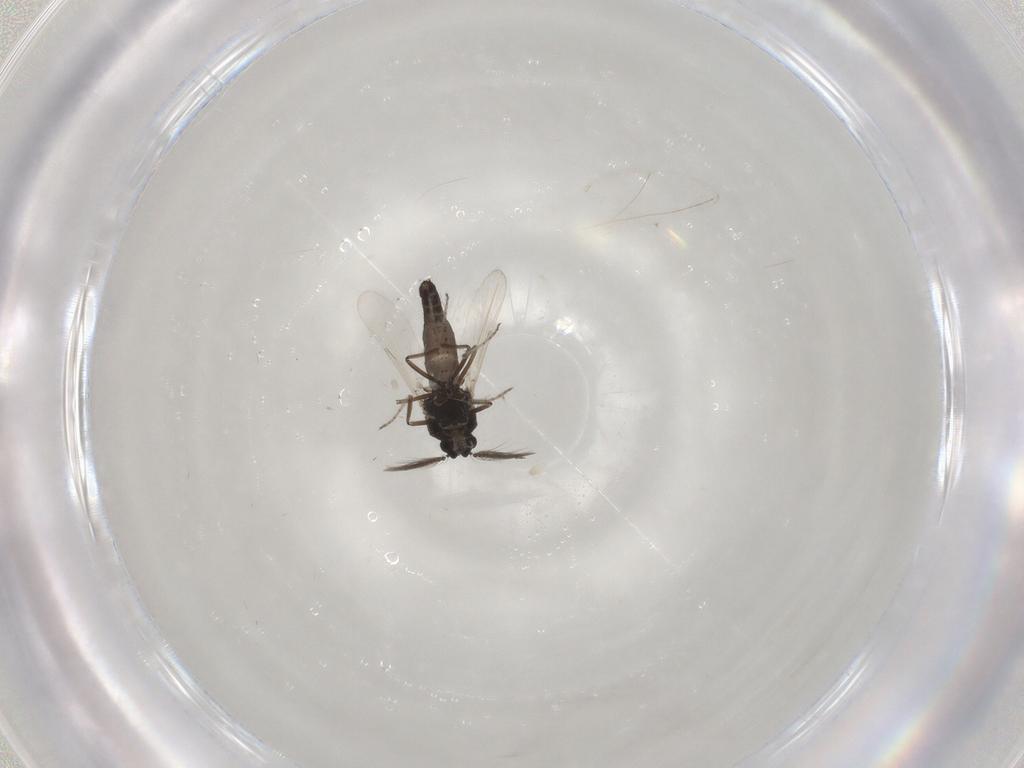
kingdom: Animalia
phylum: Arthropoda
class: Insecta
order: Diptera
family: Ceratopogonidae
